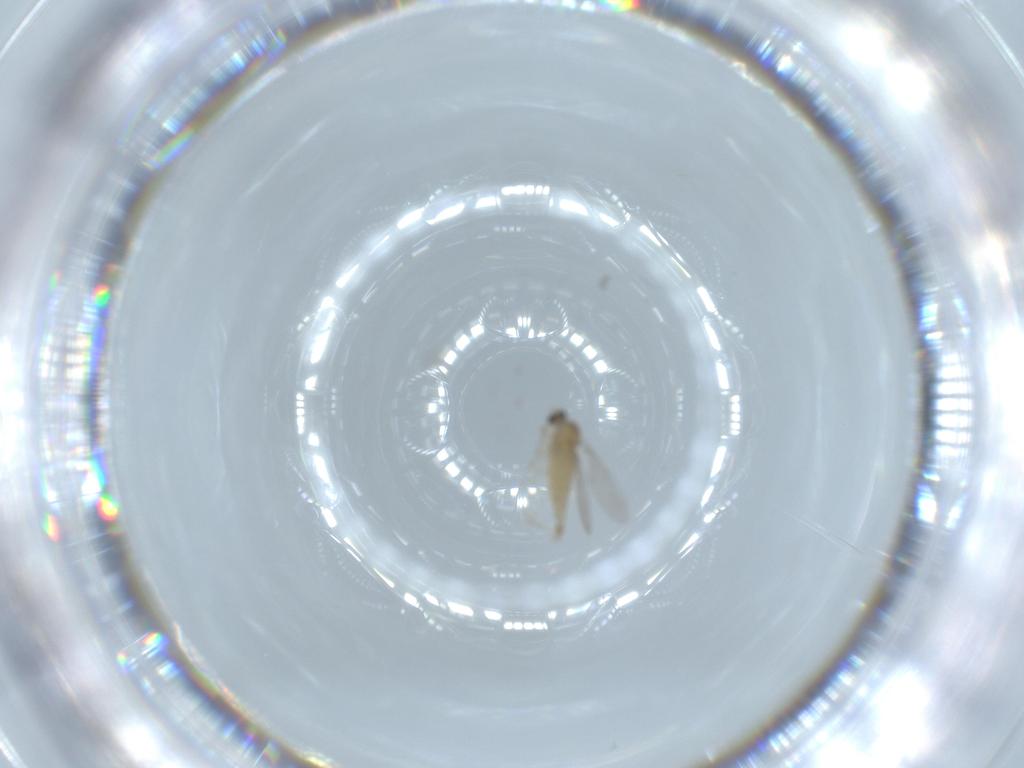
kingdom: Animalia
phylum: Arthropoda
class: Insecta
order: Diptera
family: Cecidomyiidae
